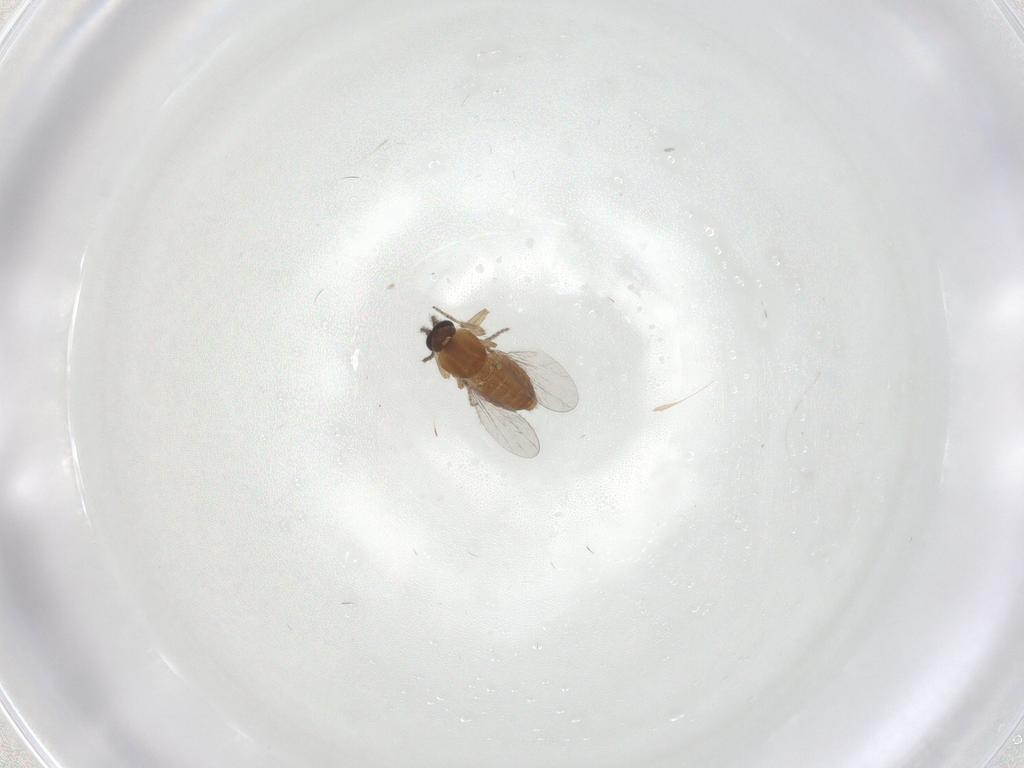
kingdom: Animalia
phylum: Arthropoda
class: Insecta
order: Diptera
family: Ceratopogonidae
